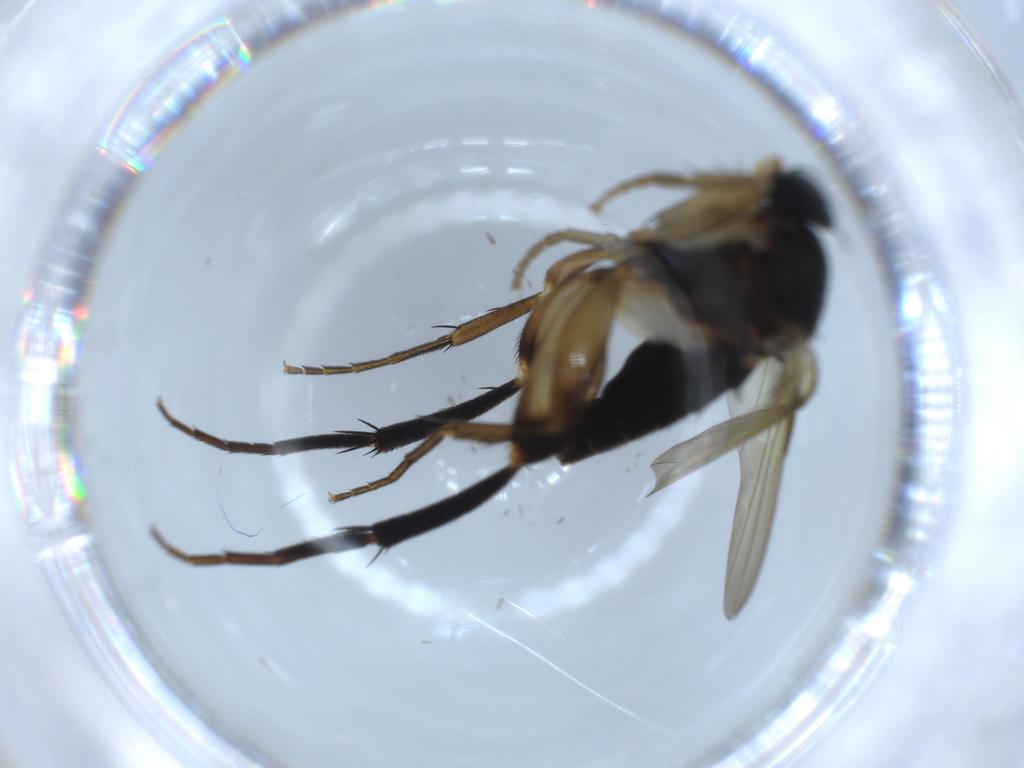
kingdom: Animalia
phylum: Arthropoda
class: Insecta
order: Diptera
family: Phoridae
